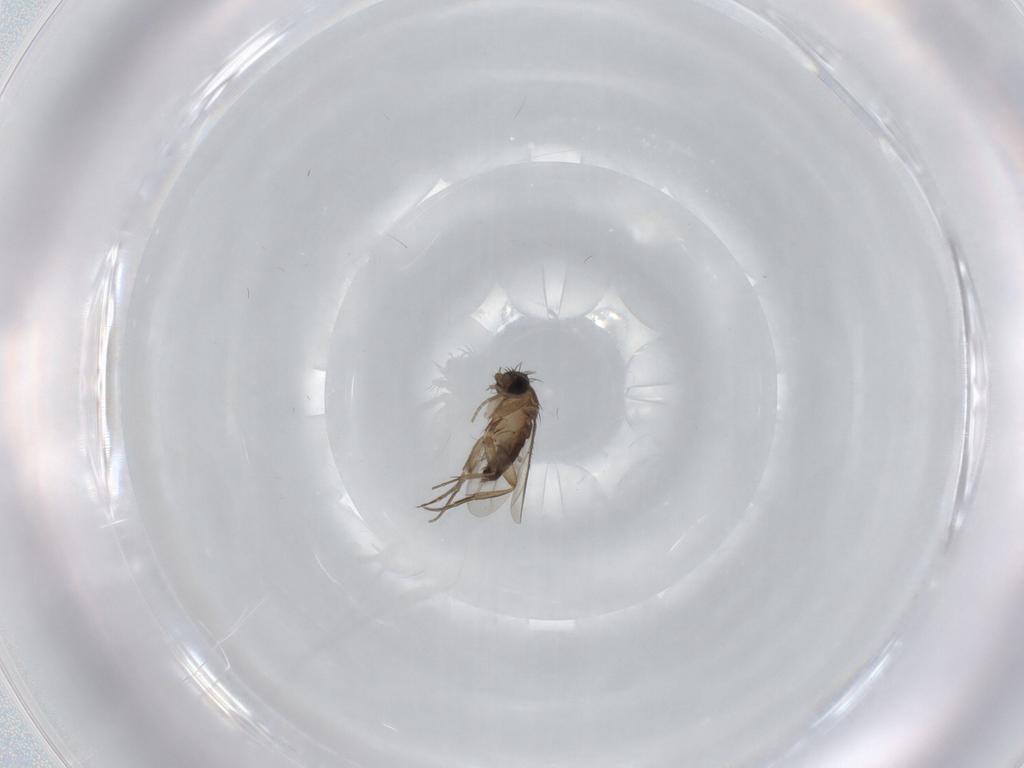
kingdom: Animalia
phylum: Arthropoda
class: Insecta
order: Diptera
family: Phoridae
